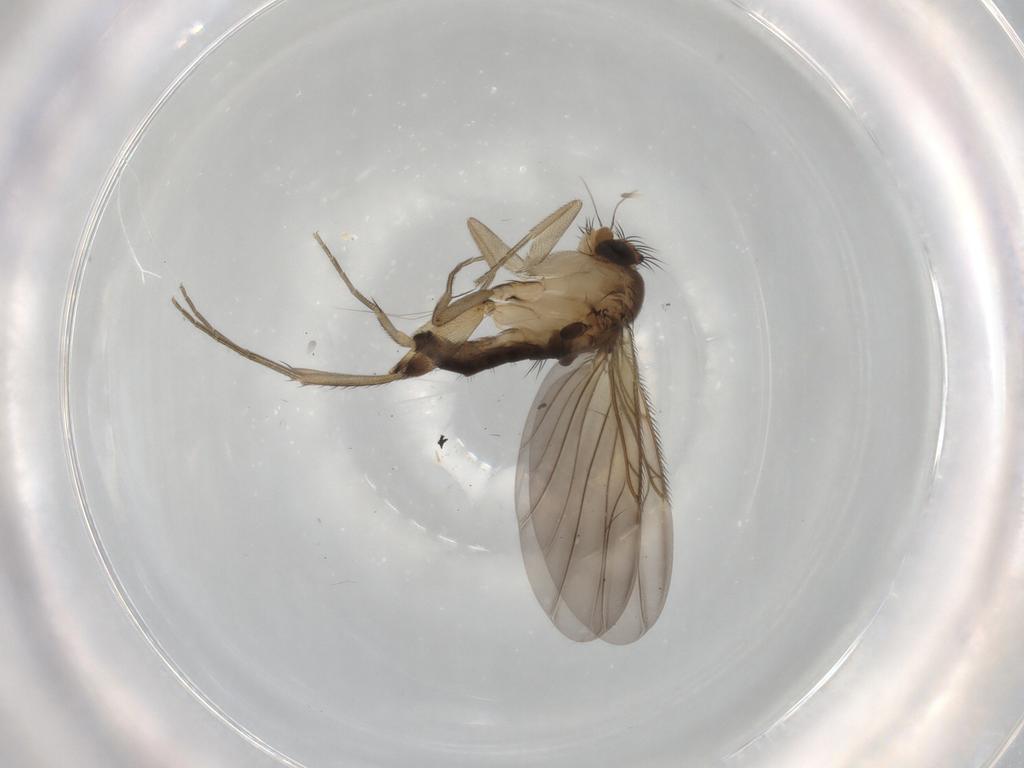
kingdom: Animalia
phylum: Arthropoda
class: Insecta
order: Diptera
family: Phoridae
